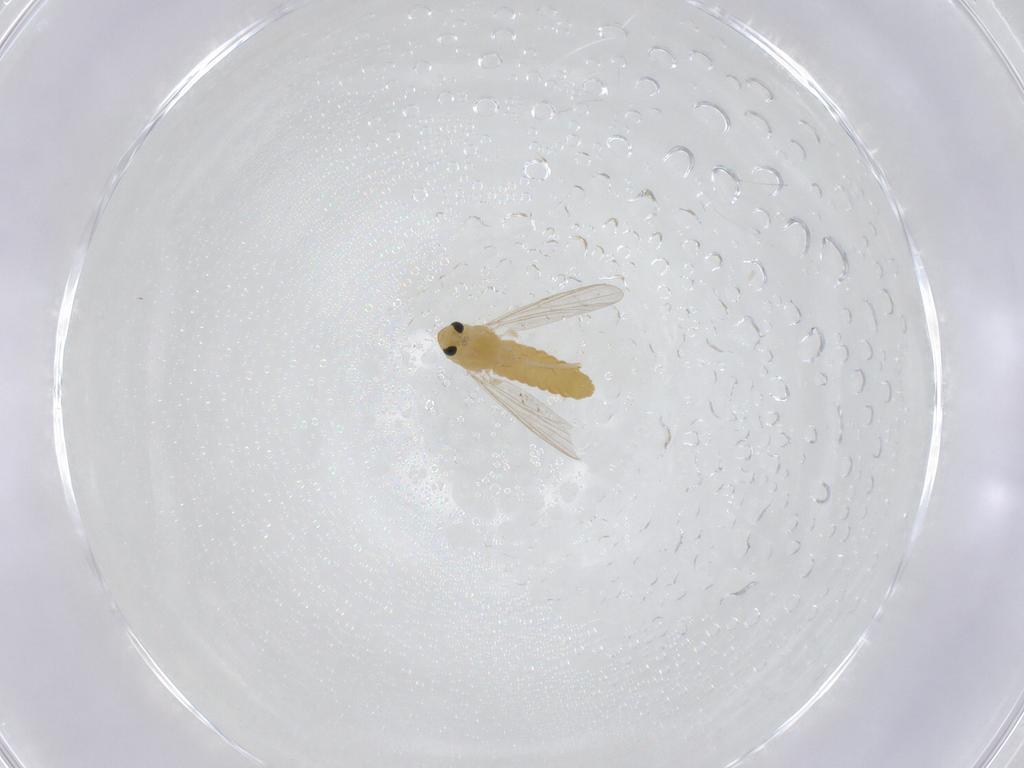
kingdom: Animalia
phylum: Arthropoda
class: Insecta
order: Diptera
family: Chironomidae
